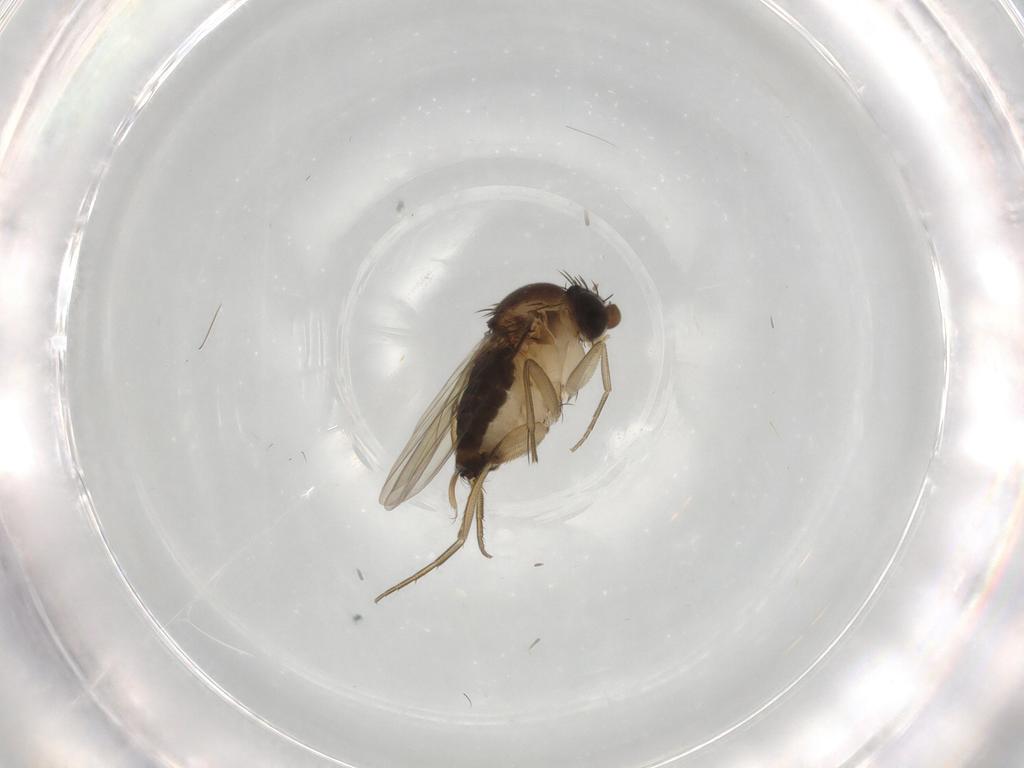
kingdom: Animalia
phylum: Arthropoda
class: Insecta
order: Diptera
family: Phoridae
